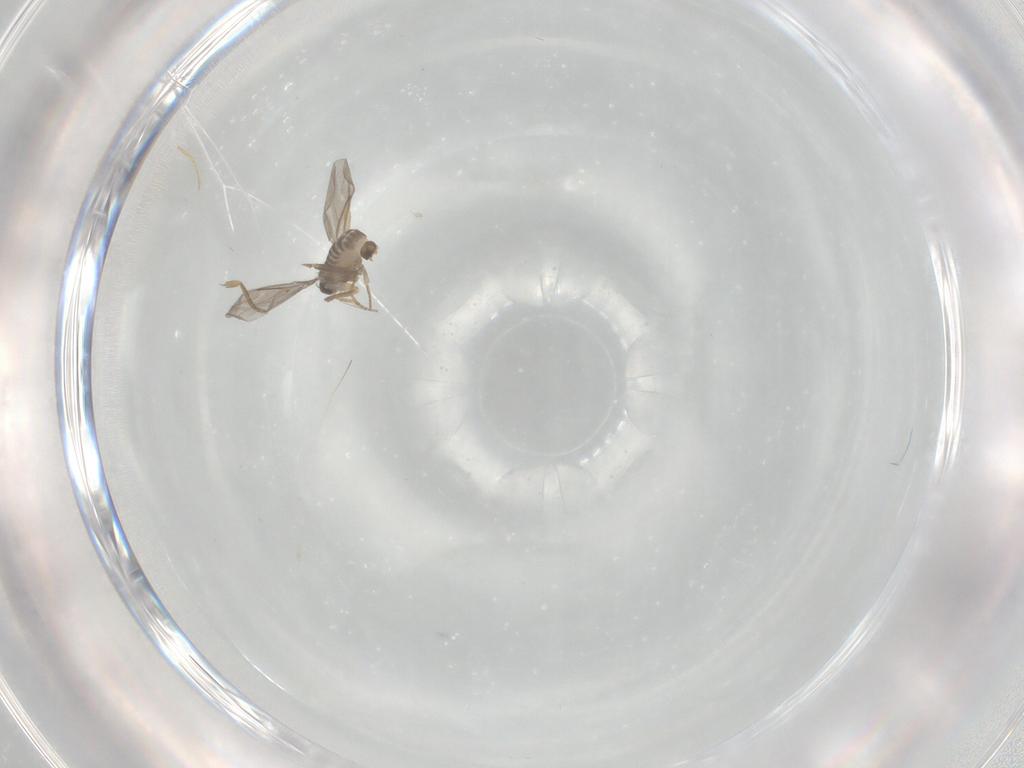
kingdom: Animalia
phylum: Arthropoda
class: Insecta
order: Diptera
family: Chironomidae
